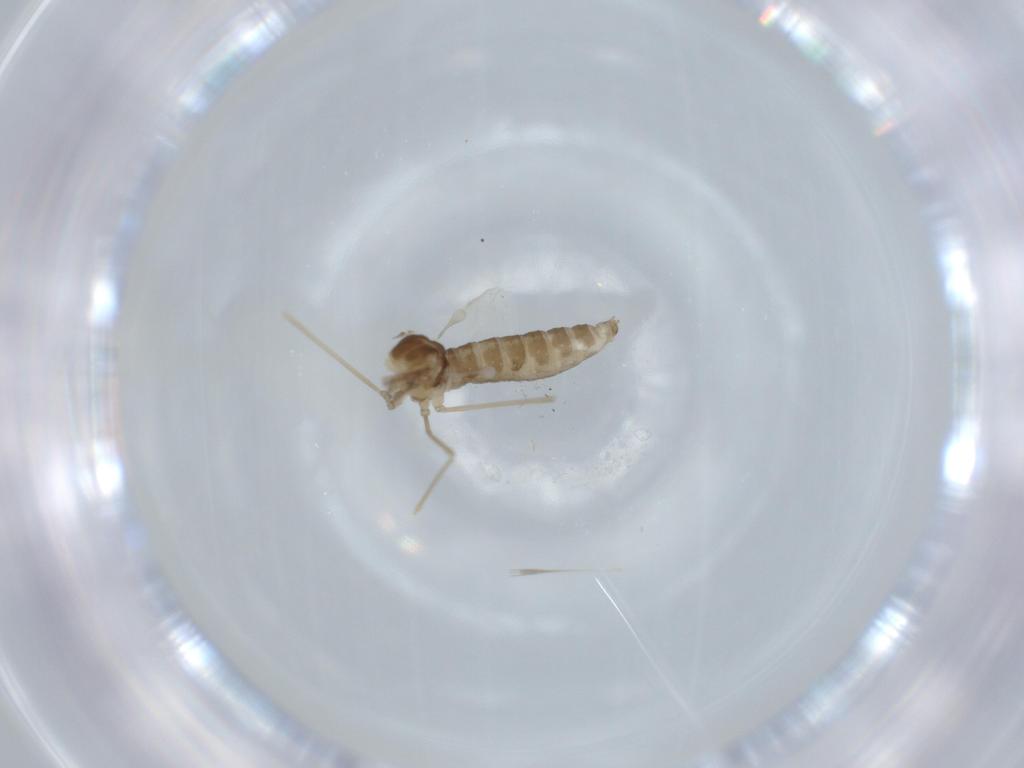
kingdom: Animalia
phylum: Arthropoda
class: Insecta
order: Diptera
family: Cecidomyiidae
